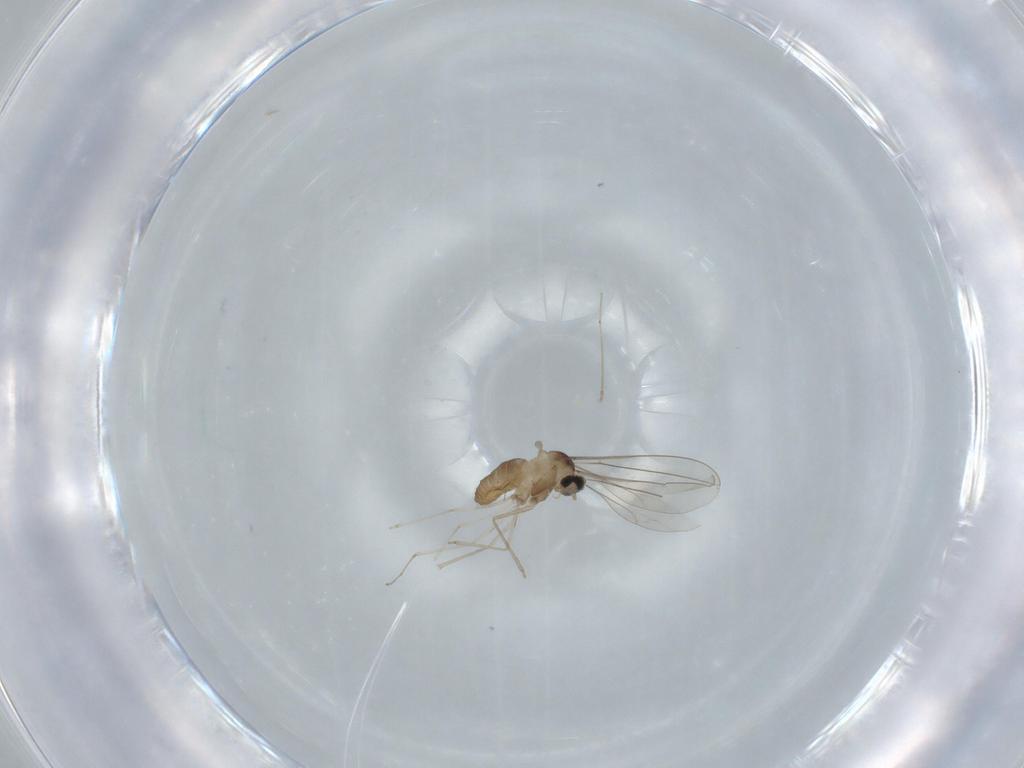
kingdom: Animalia
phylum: Arthropoda
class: Insecta
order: Diptera
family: Cecidomyiidae
